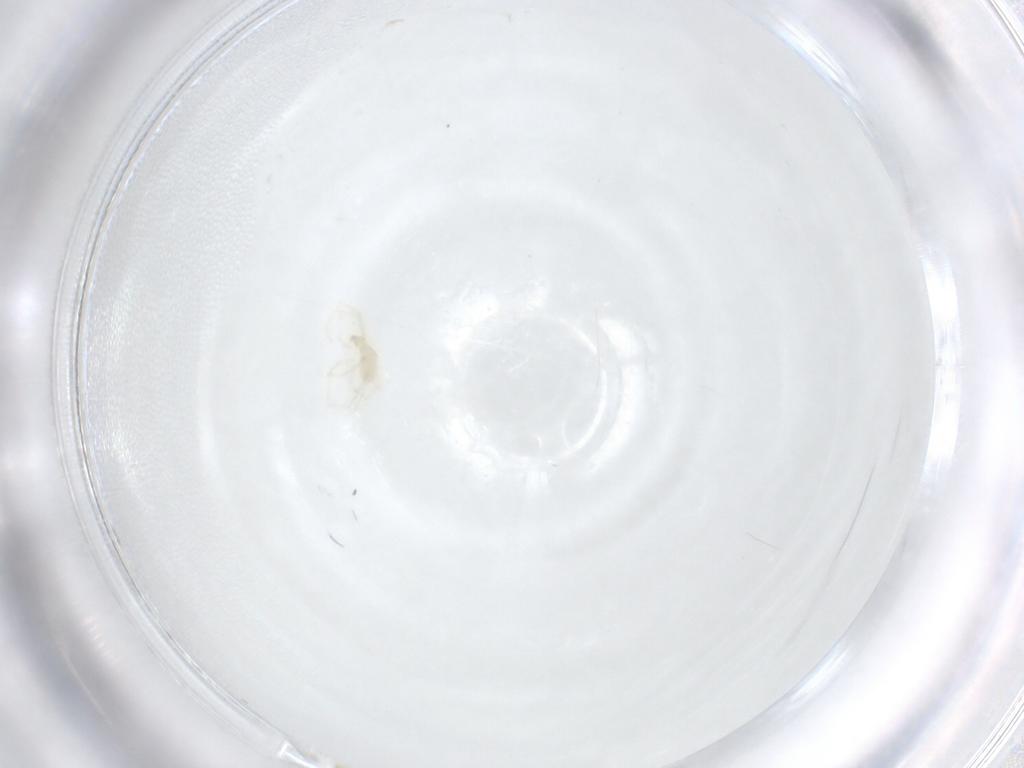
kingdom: Animalia
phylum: Arthropoda
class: Arachnida
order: Trombidiformes
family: Erythraeidae
